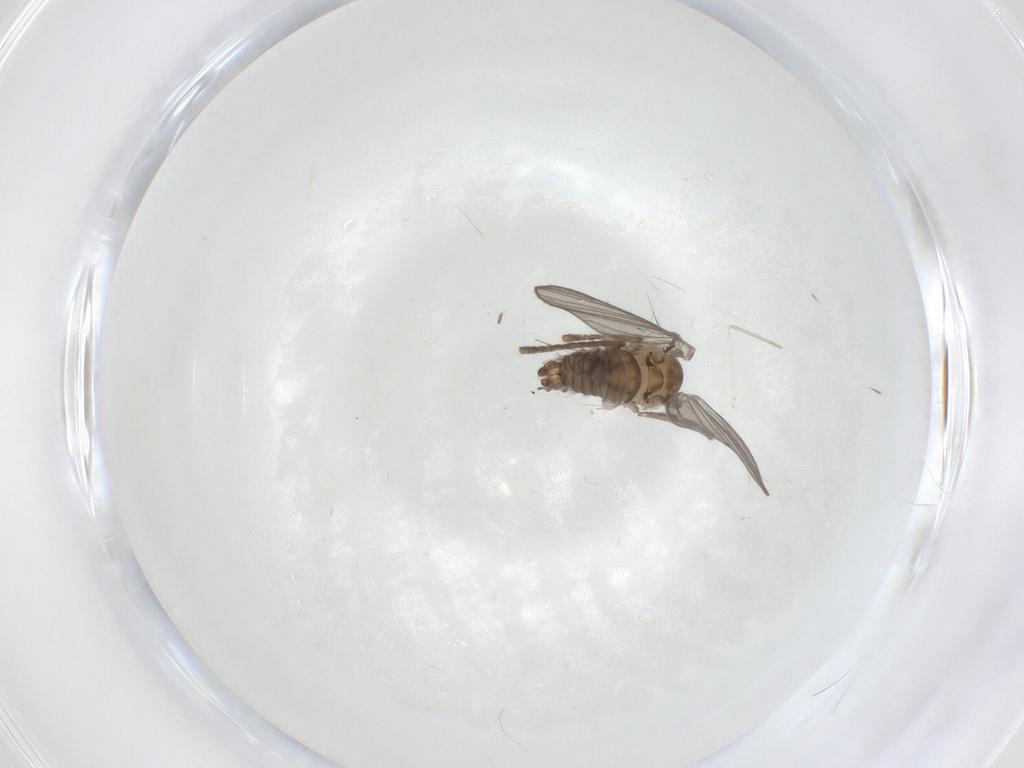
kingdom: Animalia
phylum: Arthropoda
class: Insecta
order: Diptera
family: Psychodidae
